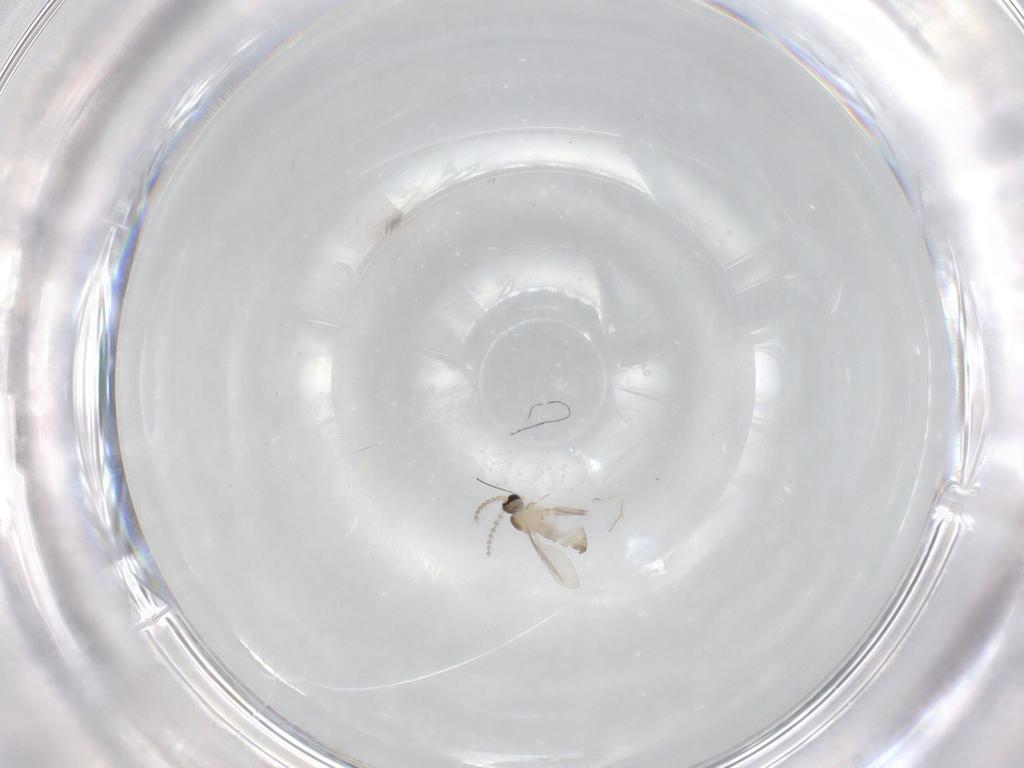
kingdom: Animalia
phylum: Arthropoda
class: Insecta
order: Diptera
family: Cecidomyiidae
